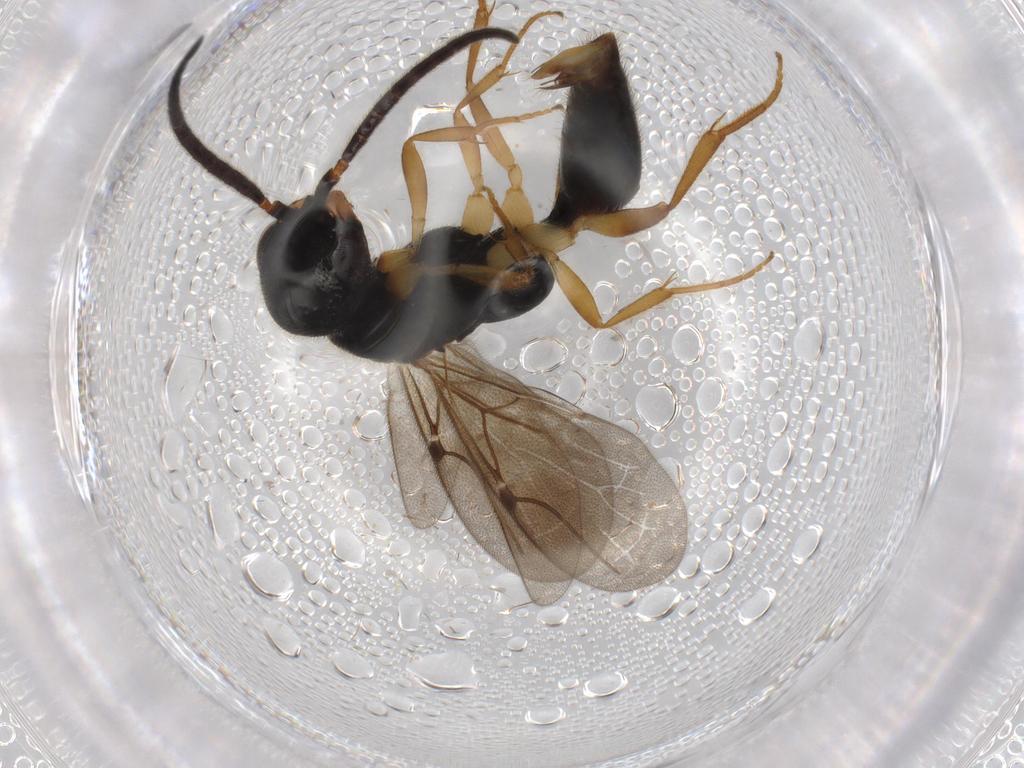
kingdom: Animalia
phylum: Arthropoda
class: Insecta
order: Hymenoptera
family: Bethylidae
